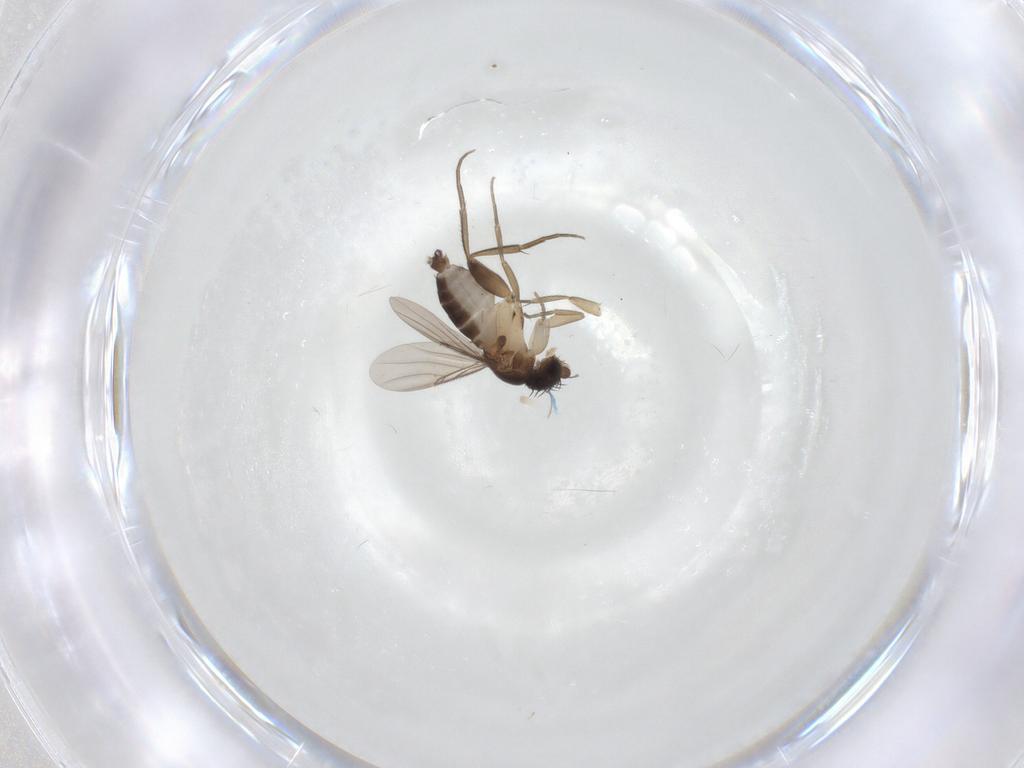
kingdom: Animalia
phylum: Arthropoda
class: Insecta
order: Diptera
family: Phoridae
